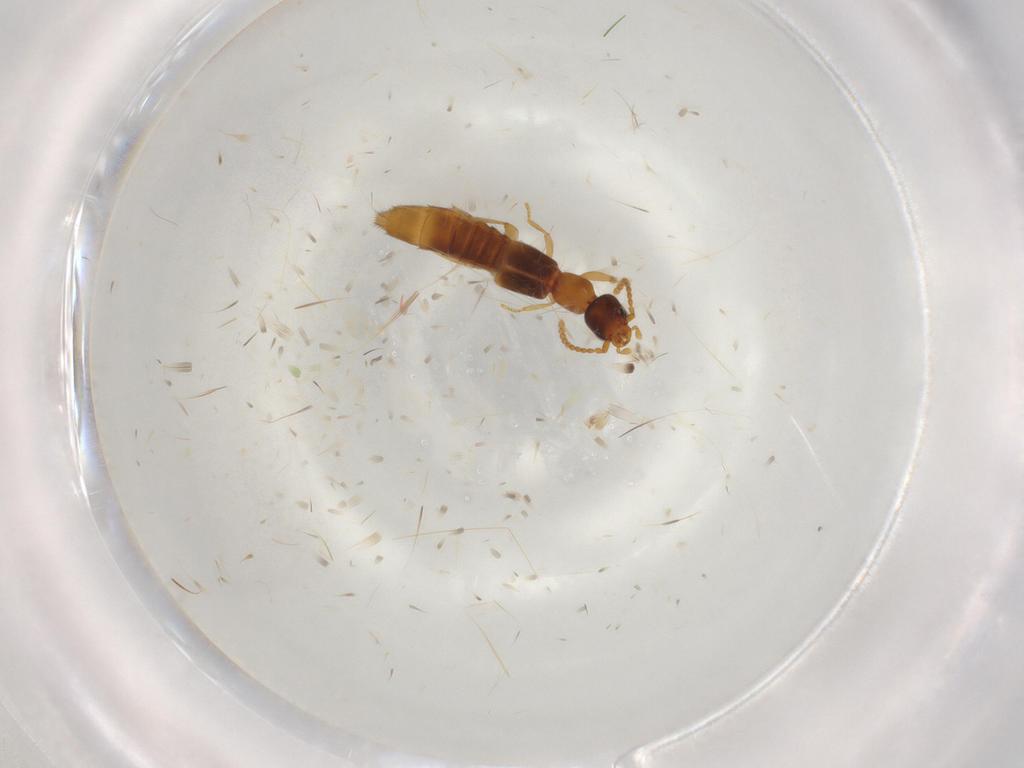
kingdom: Animalia
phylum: Arthropoda
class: Insecta
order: Coleoptera
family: Staphylinidae
